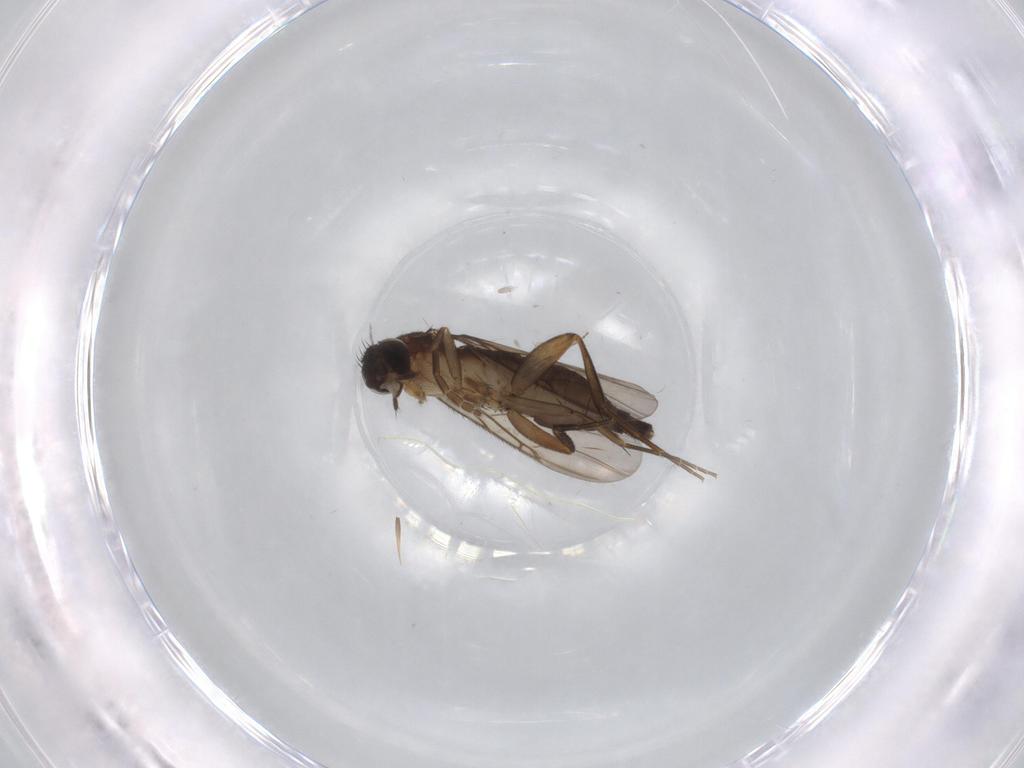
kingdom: Animalia
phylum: Arthropoda
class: Insecta
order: Diptera
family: Phoridae
